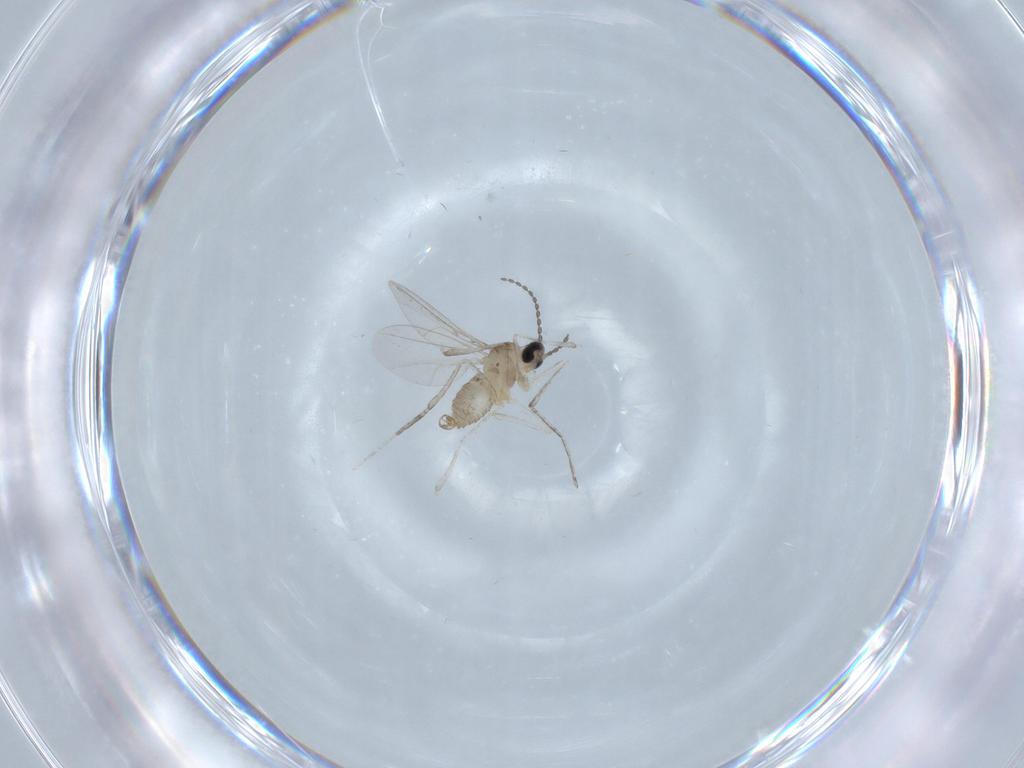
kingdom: Animalia
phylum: Arthropoda
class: Insecta
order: Diptera
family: Cecidomyiidae
